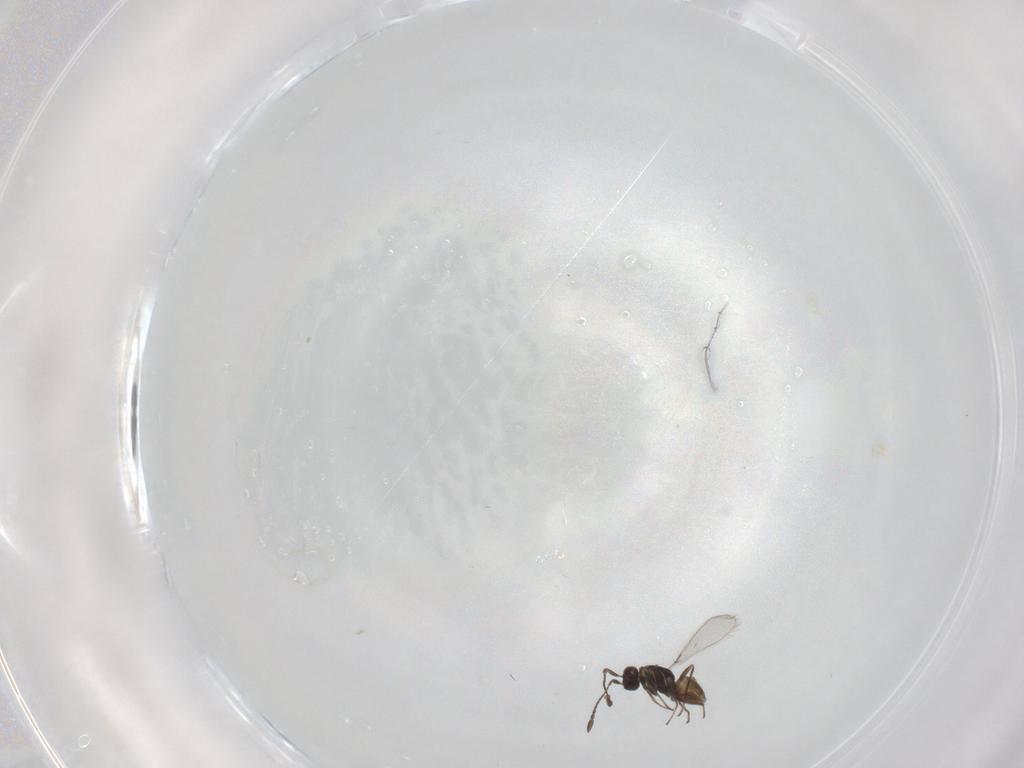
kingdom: Animalia
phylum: Arthropoda
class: Insecta
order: Hymenoptera
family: Mymaridae
